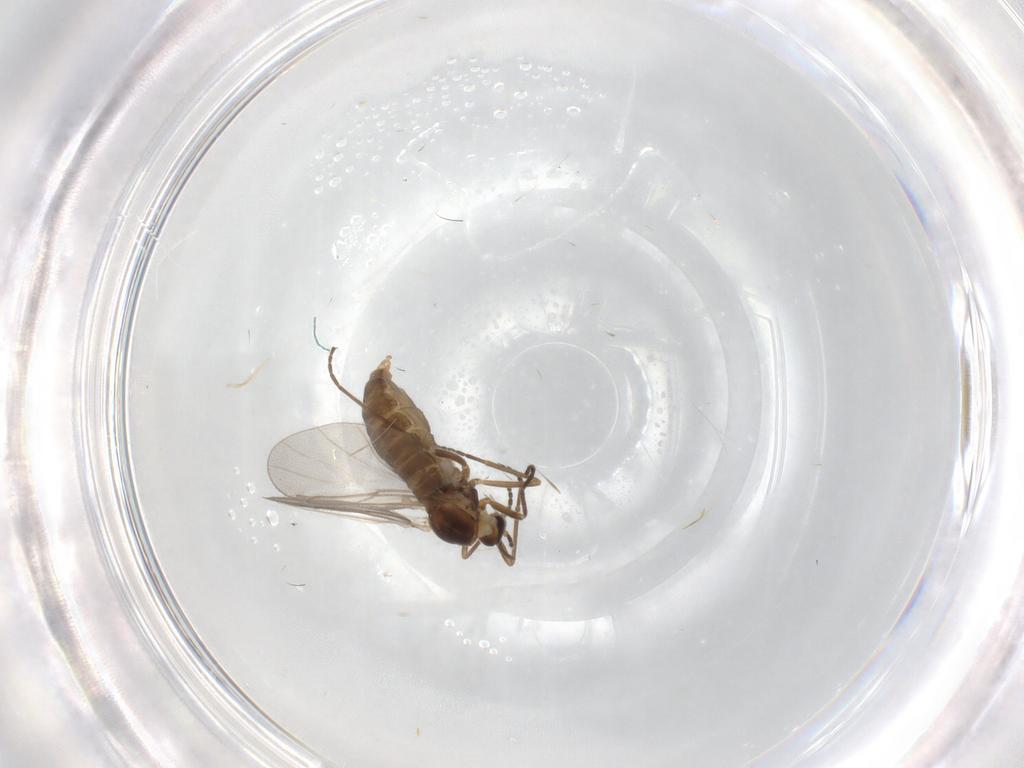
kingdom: Animalia
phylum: Arthropoda
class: Insecta
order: Diptera
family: Cecidomyiidae
